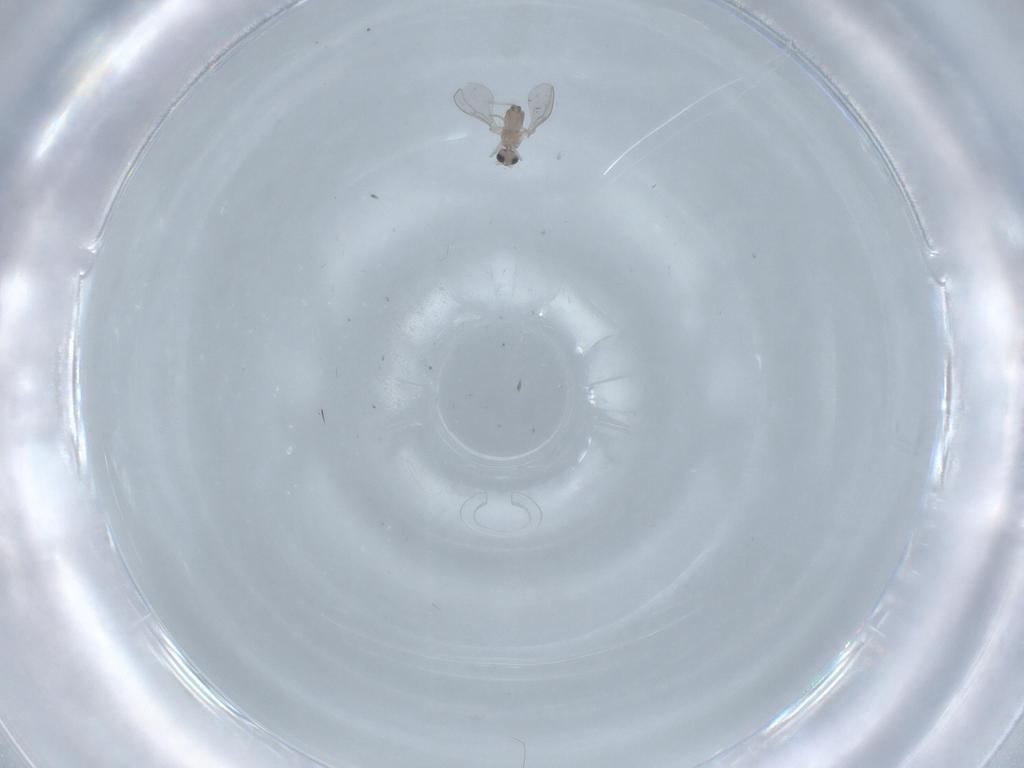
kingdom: Animalia
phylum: Arthropoda
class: Insecta
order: Diptera
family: Cecidomyiidae
